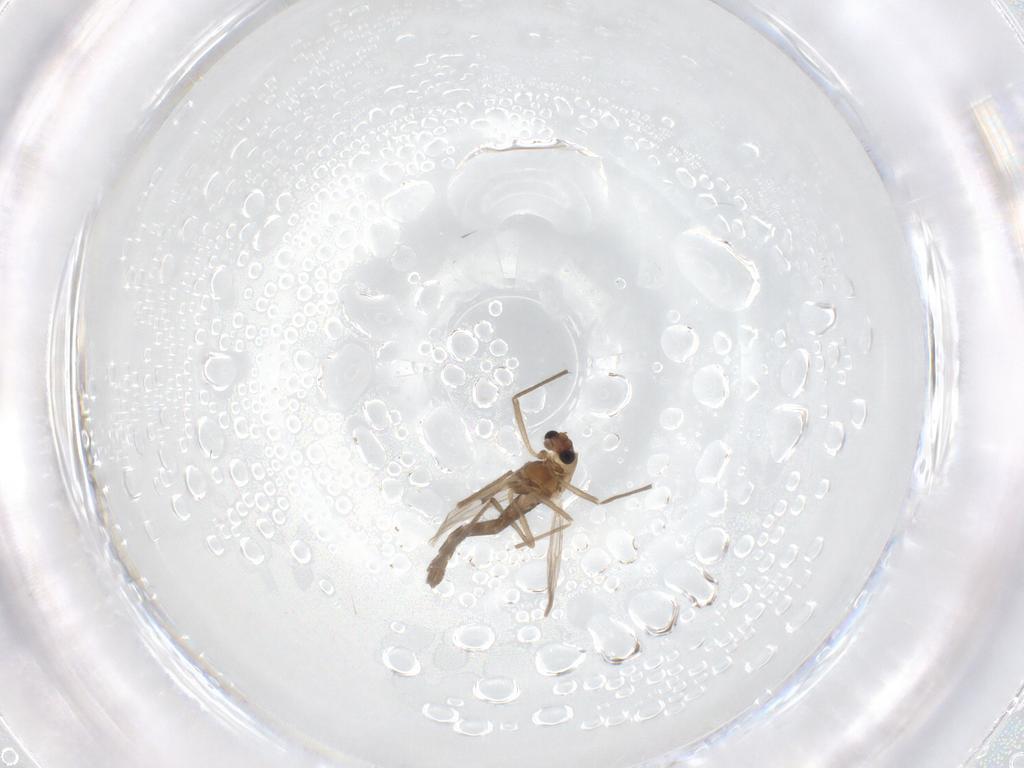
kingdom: Animalia
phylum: Arthropoda
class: Insecta
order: Diptera
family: Chironomidae
